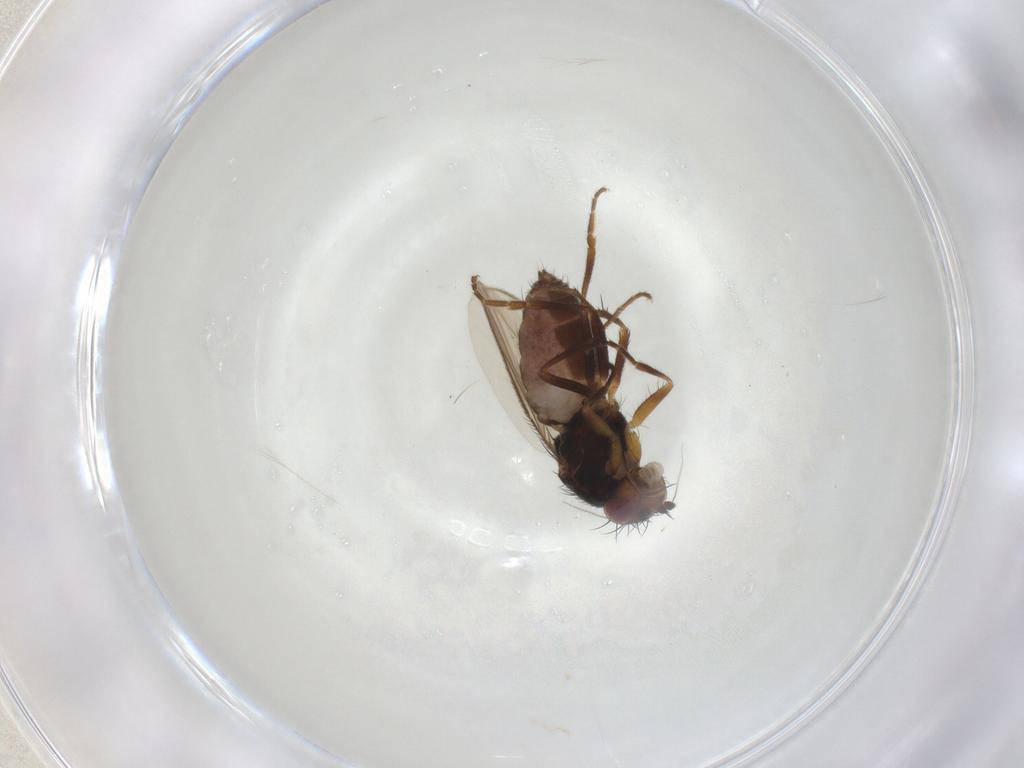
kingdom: Animalia
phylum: Arthropoda
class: Insecta
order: Diptera
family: Sphaeroceridae
